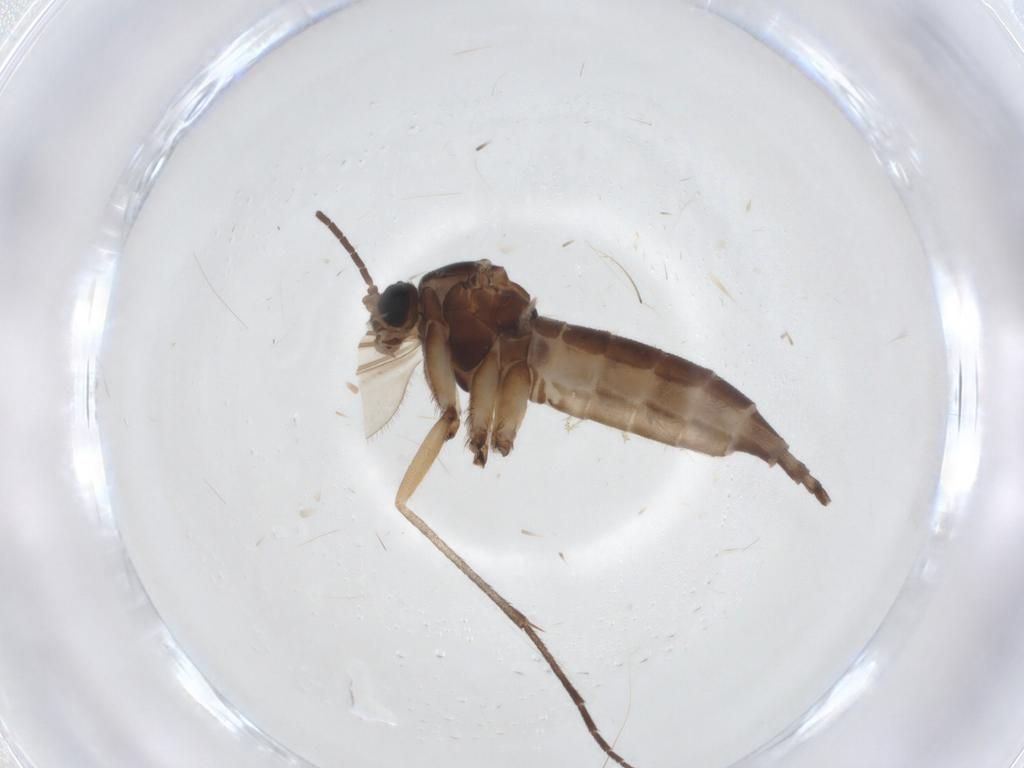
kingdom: Animalia
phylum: Arthropoda
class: Insecta
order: Diptera
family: Sciaridae
